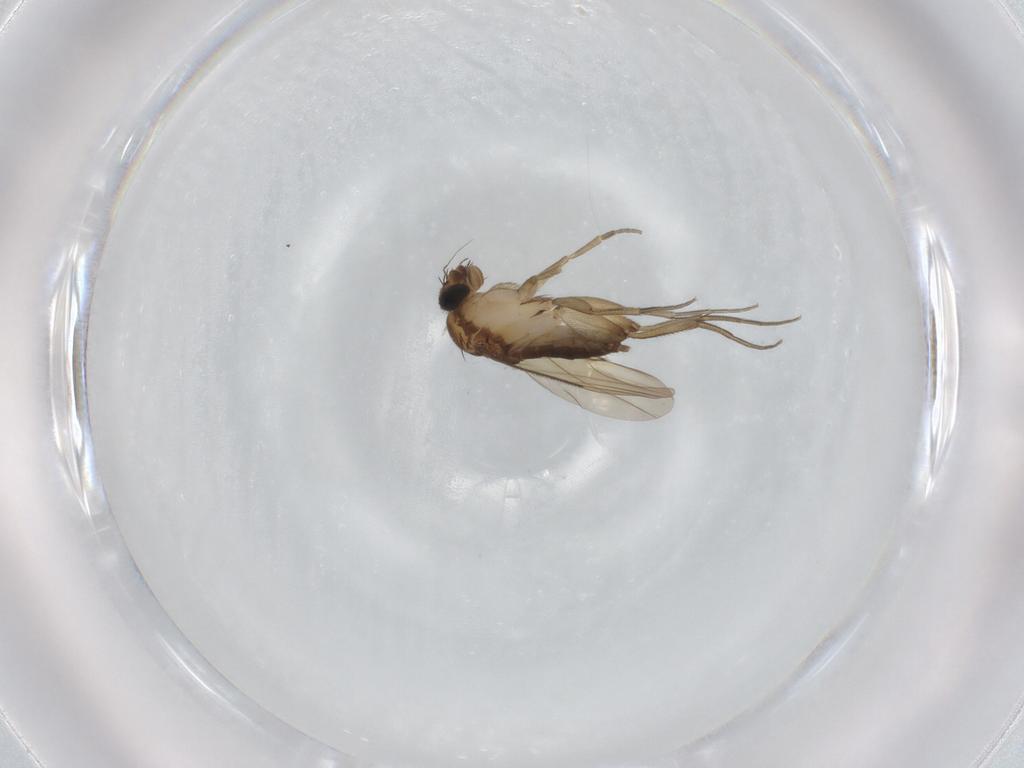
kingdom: Animalia
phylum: Arthropoda
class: Insecta
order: Diptera
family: Phoridae
